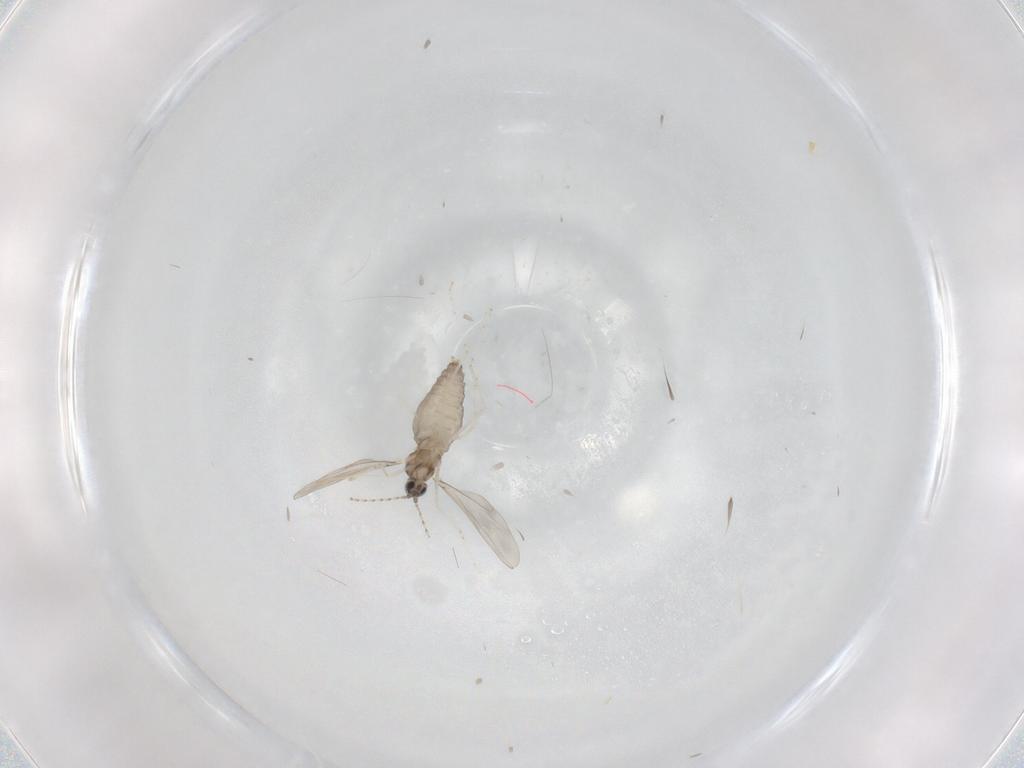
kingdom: Animalia
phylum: Arthropoda
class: Insecta
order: Diptera
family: Cecidomyiidae
